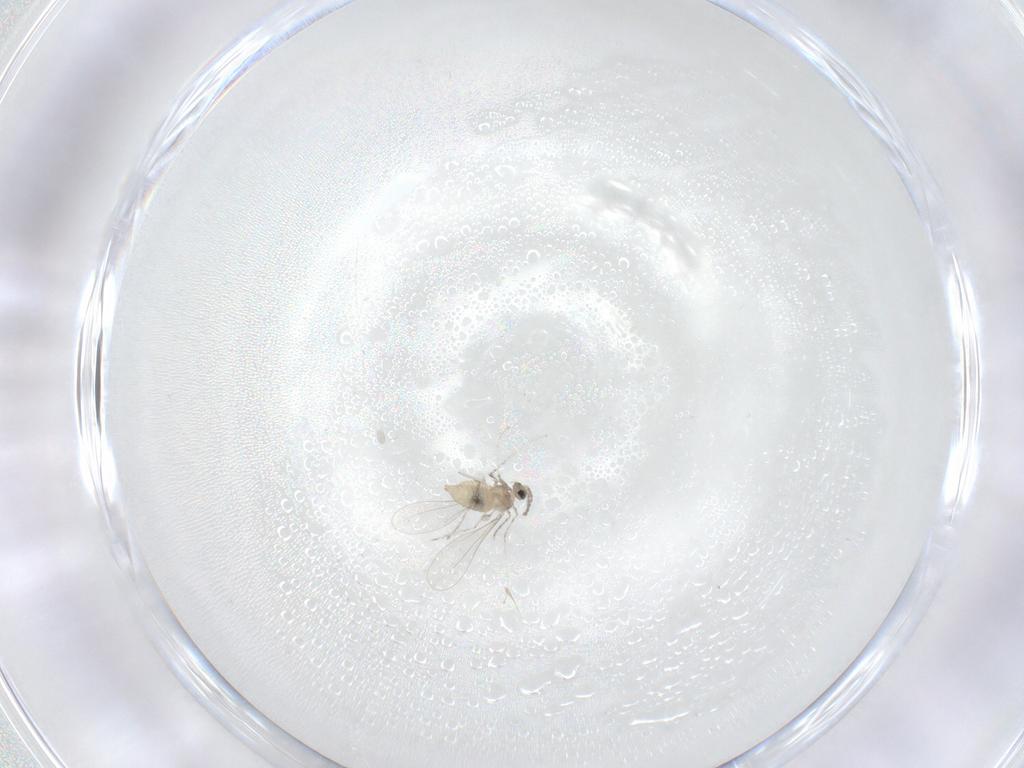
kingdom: Animalia
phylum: Arthropoda
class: Insecta
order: Diptera
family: Cecidomyiidae
